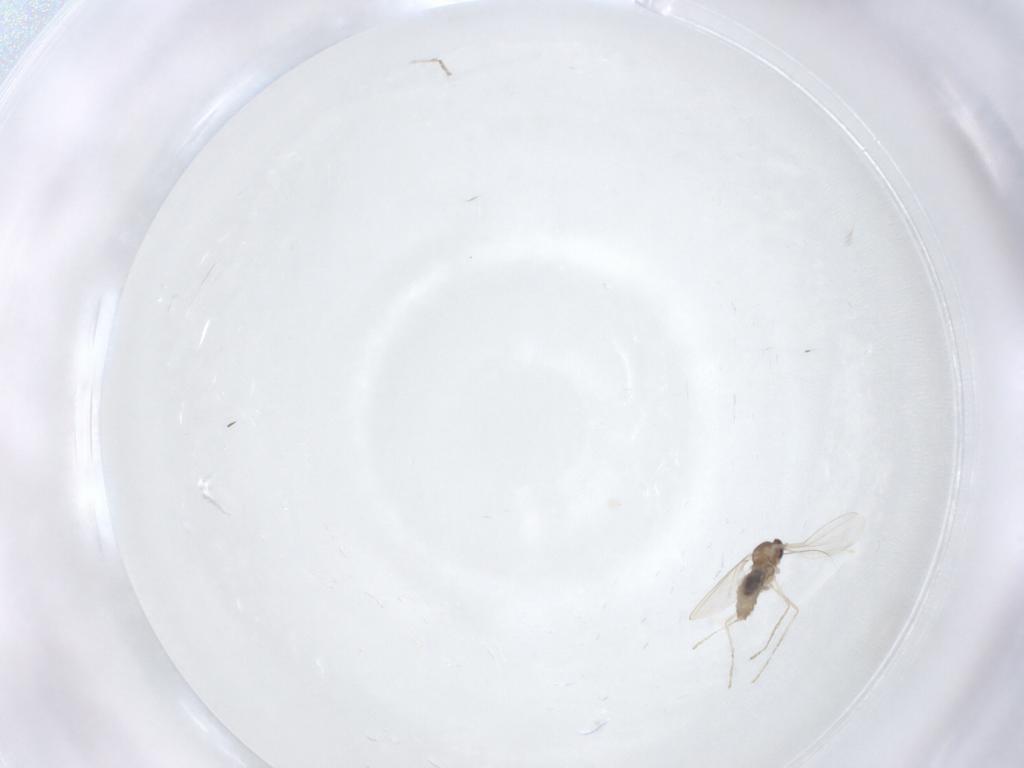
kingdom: Animalia
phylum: Arthropoda
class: Insecta
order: Diptera
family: Cecidomyiidae
